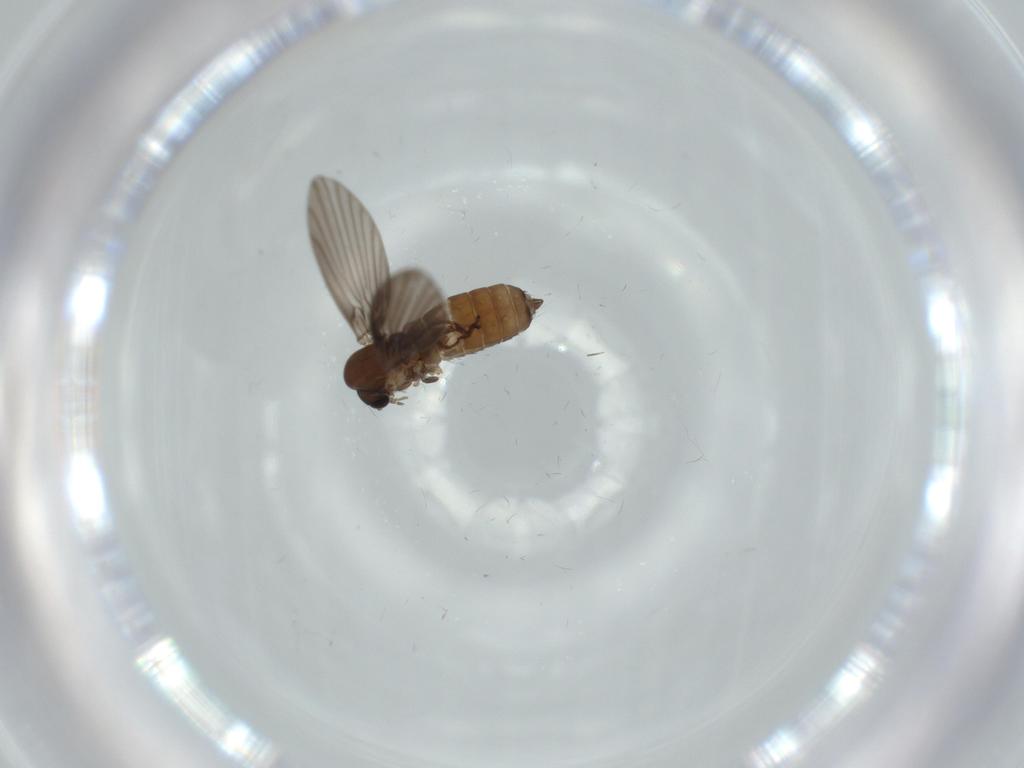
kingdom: Animalia
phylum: Arthropoda
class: Insecta
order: Diptera
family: Psychodidae
